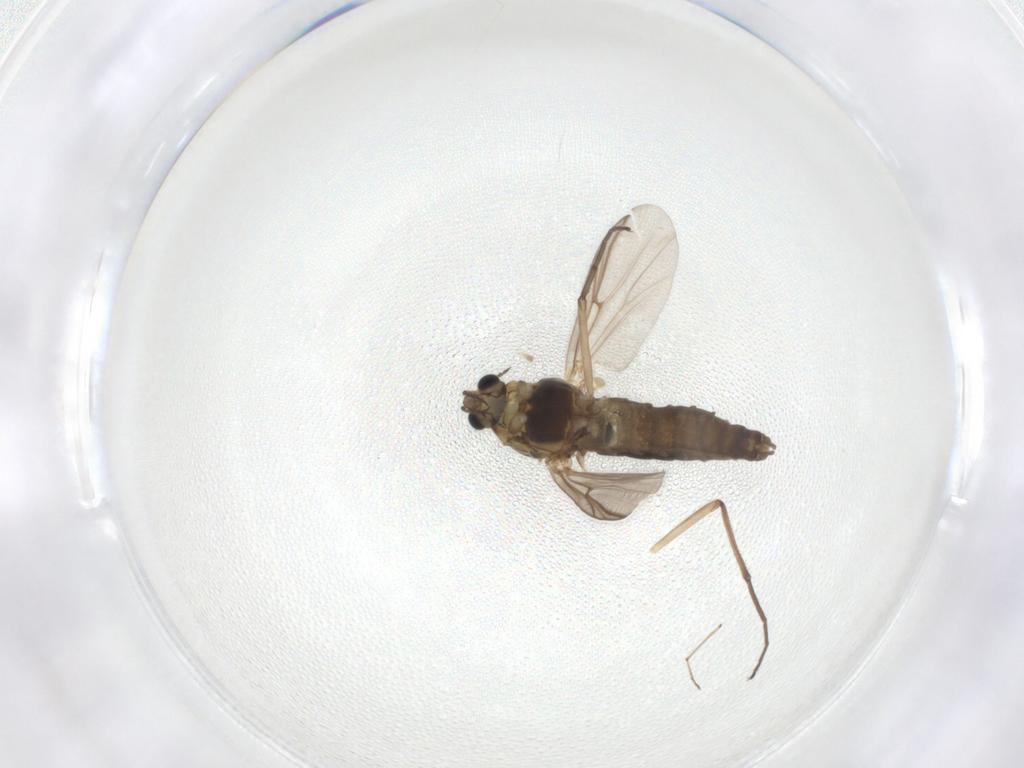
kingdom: Animalia
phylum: Arthropoda
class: Insecta
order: Diptera
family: Chironomidae
